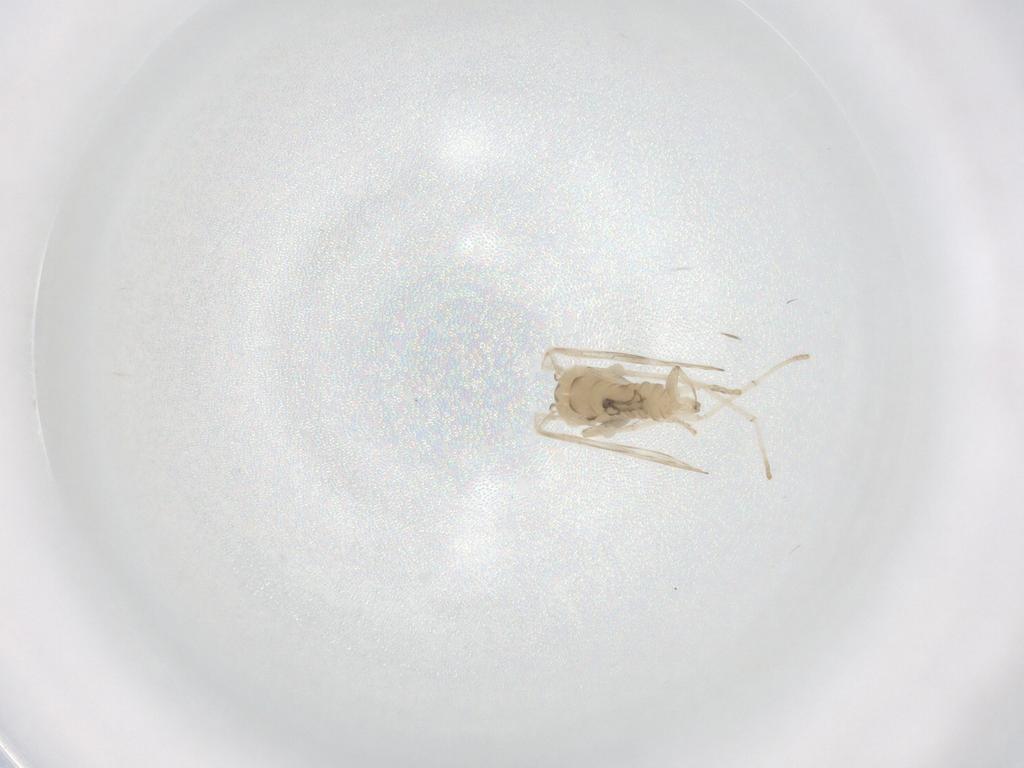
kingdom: Animalia
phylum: Arthropoda
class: Insecta
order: Diptera
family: Psychodidae
